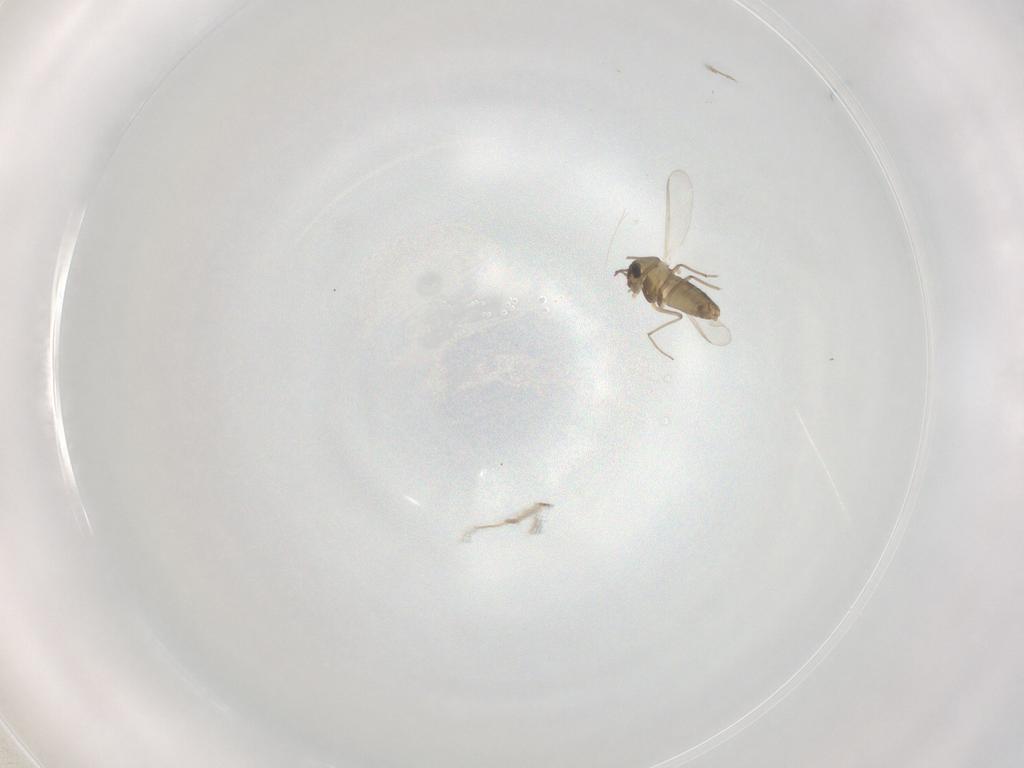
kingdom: Animalia
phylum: Arthropoda
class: Insecta
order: Diptera
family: Chironomidae
